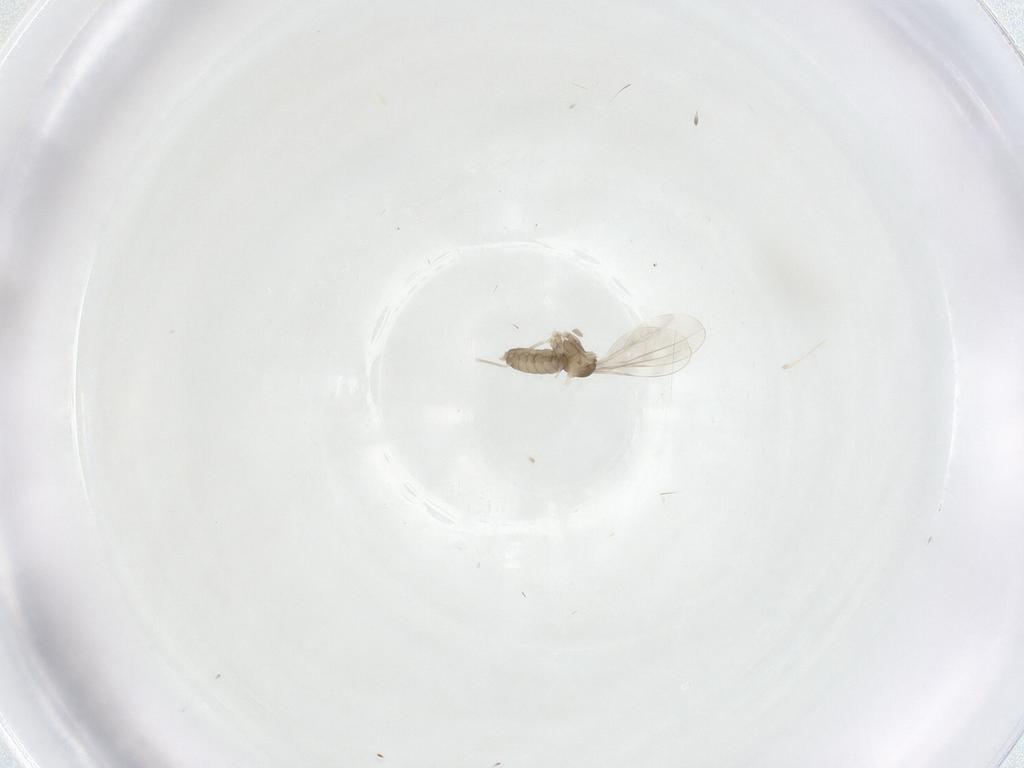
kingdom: Animalia
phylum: Arthropoda
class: Insecta
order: Diptera
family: Cecidomyiidae
